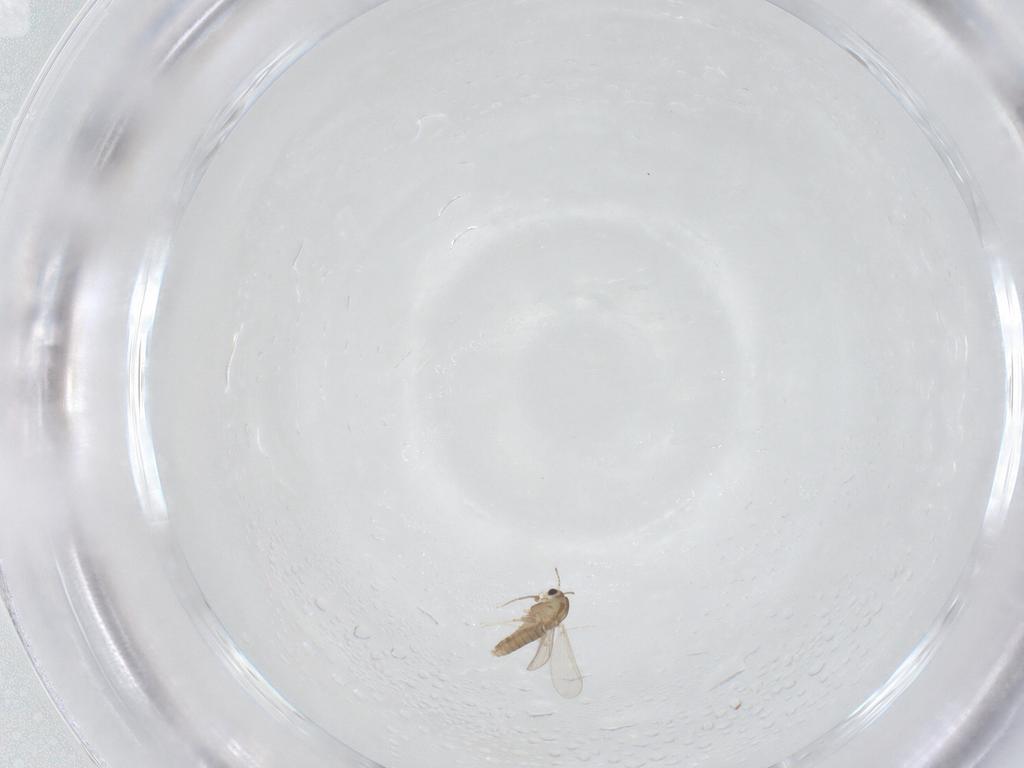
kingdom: Animalia
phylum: Arthropoda
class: Insecta
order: Diptera
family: Chironomidae
